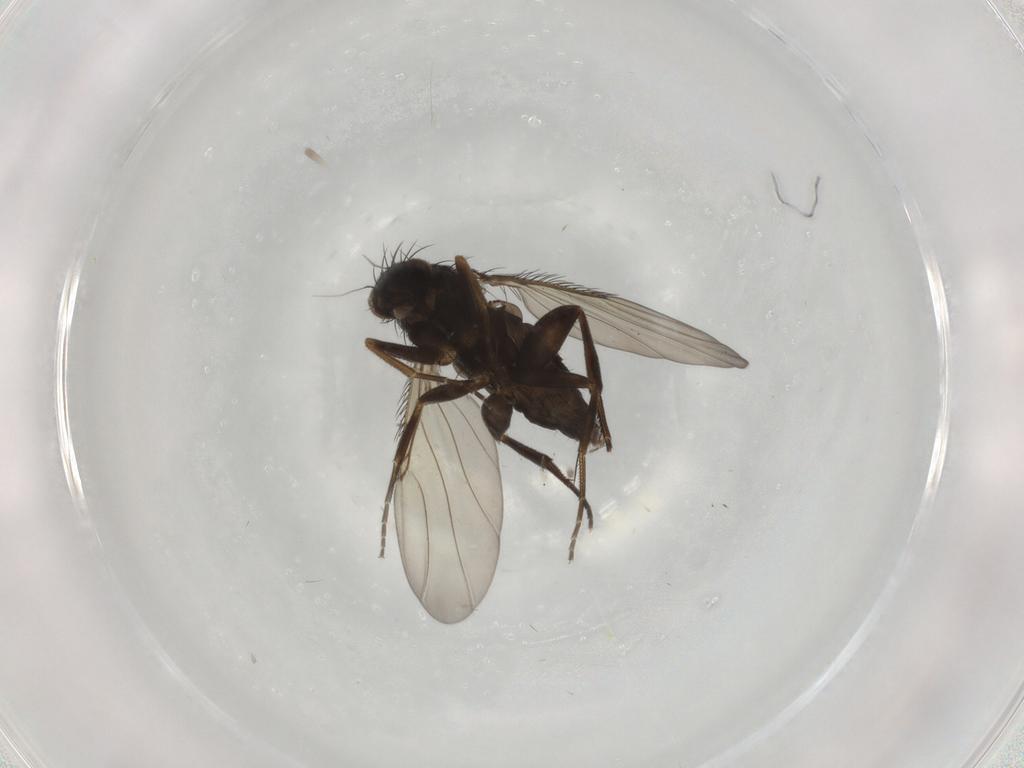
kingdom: Animalia
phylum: Arthropoda
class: Insecta
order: Diptera
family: Phoridae
